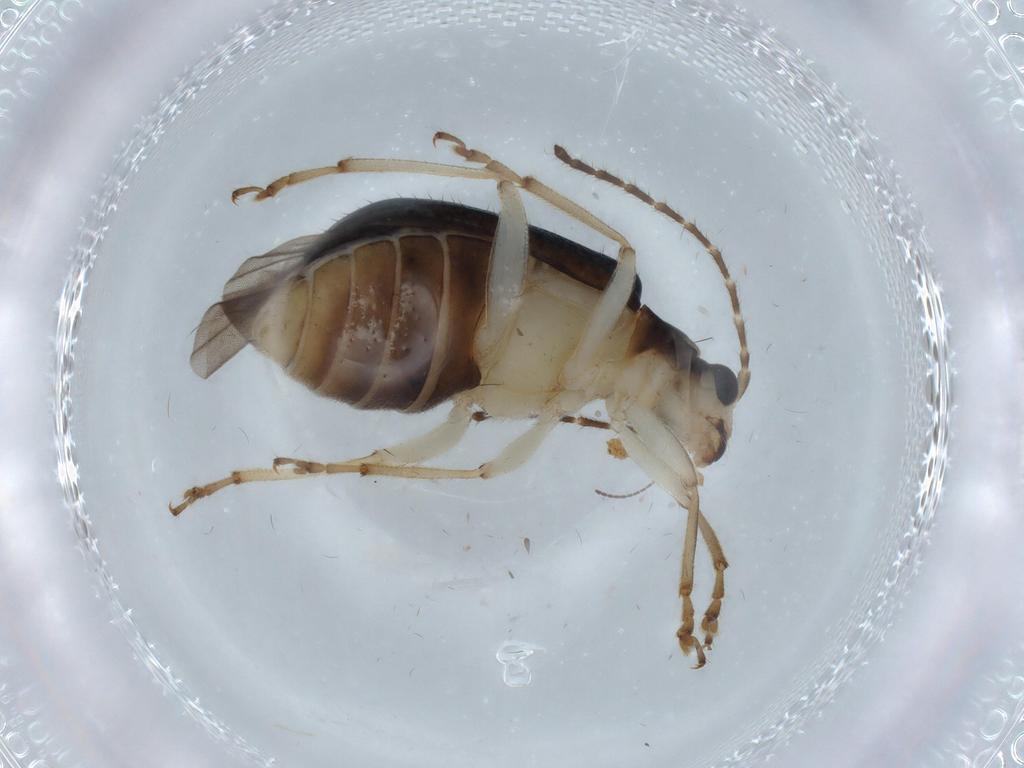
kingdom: Animalia
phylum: Arthropoda
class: Insecta
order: Coleoptera
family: Chrysomelidae
